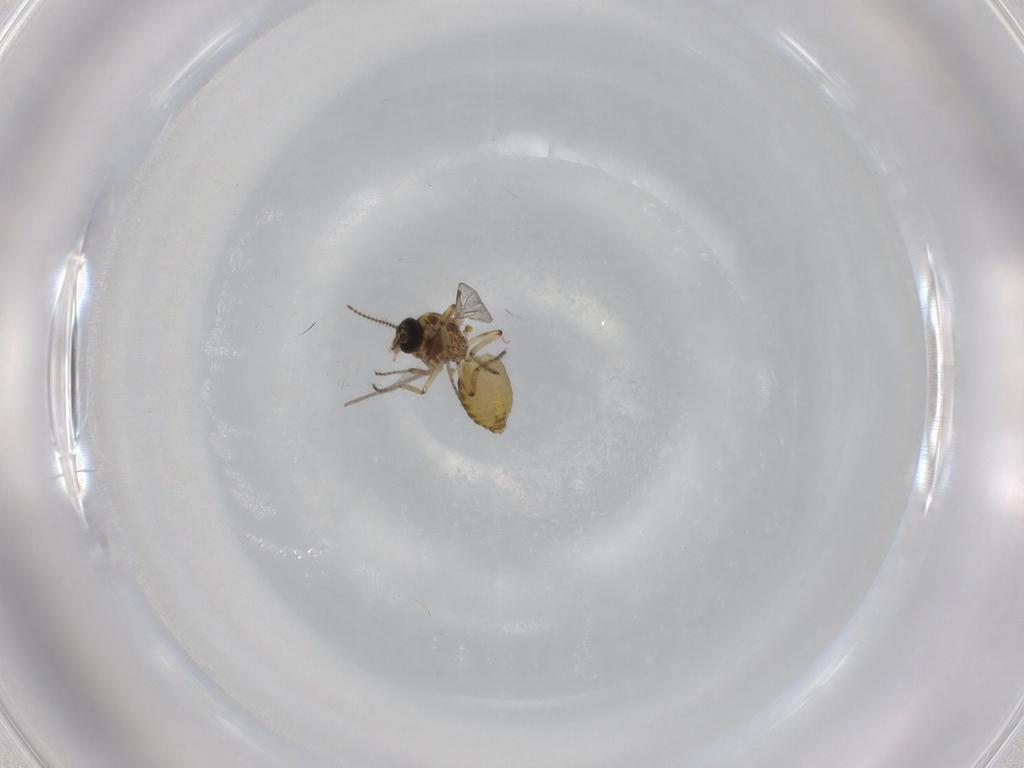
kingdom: Animalia
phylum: Arthropoda
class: Insecta
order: Diptera
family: Ceratopogonidae
